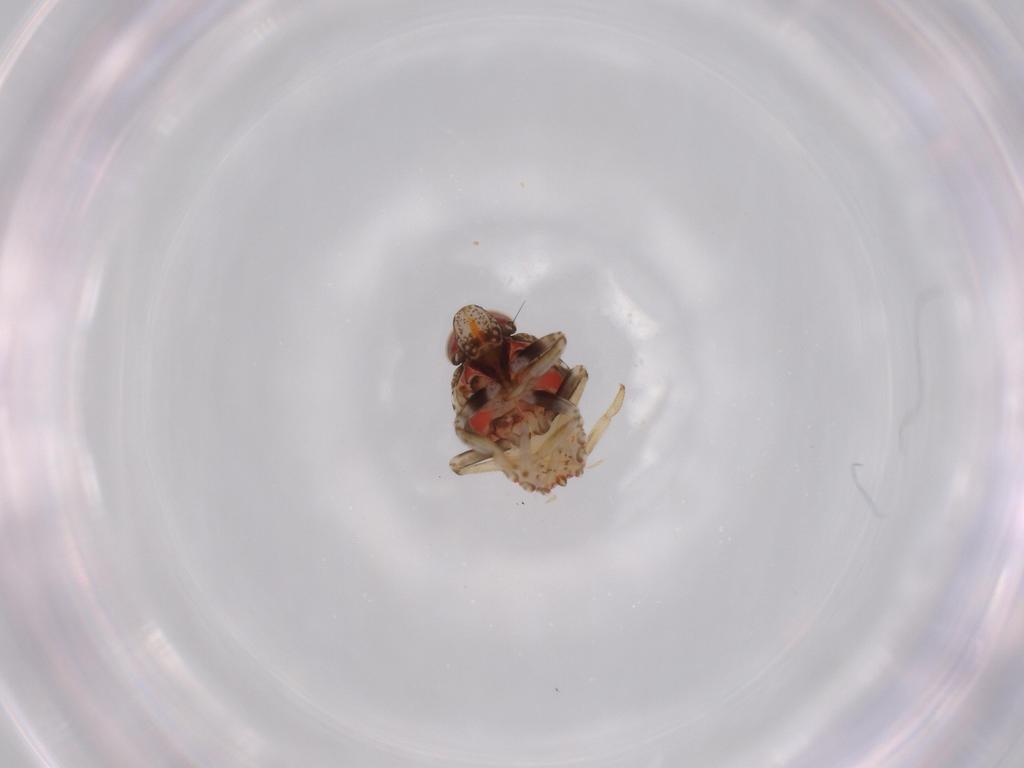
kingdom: Animalia
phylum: Arthropoda
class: Insecta
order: Hemiptera
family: Issidae
